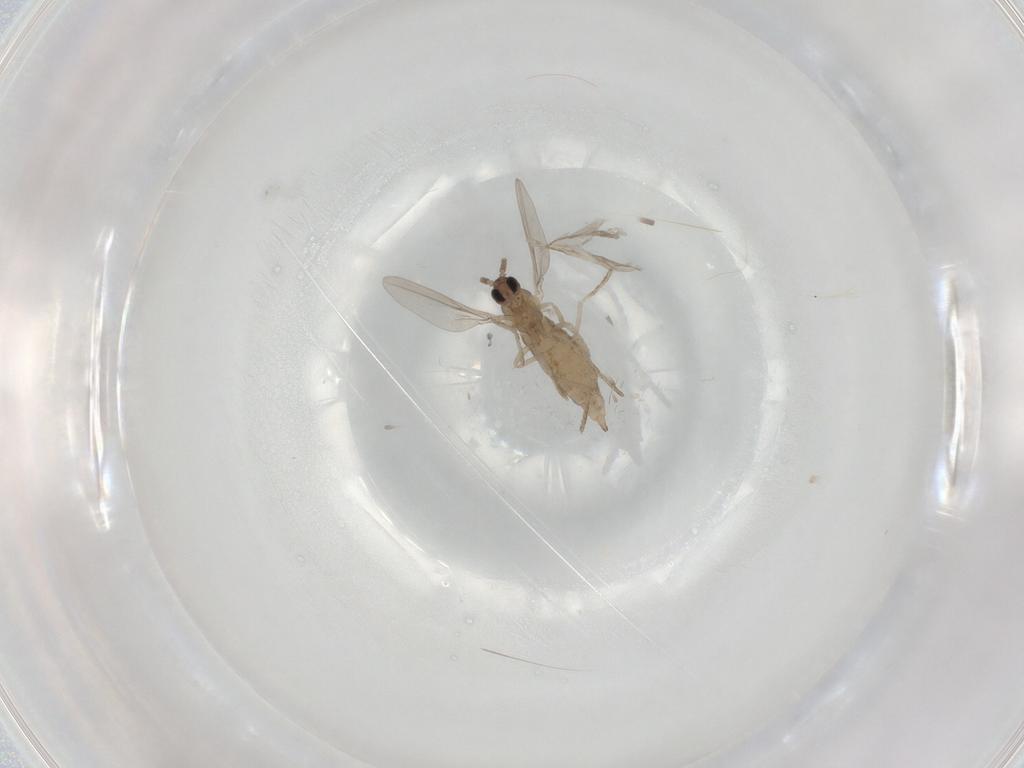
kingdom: Animalia
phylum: Arthropoda
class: Insecta
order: Diptera
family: Cecidomyiidae
